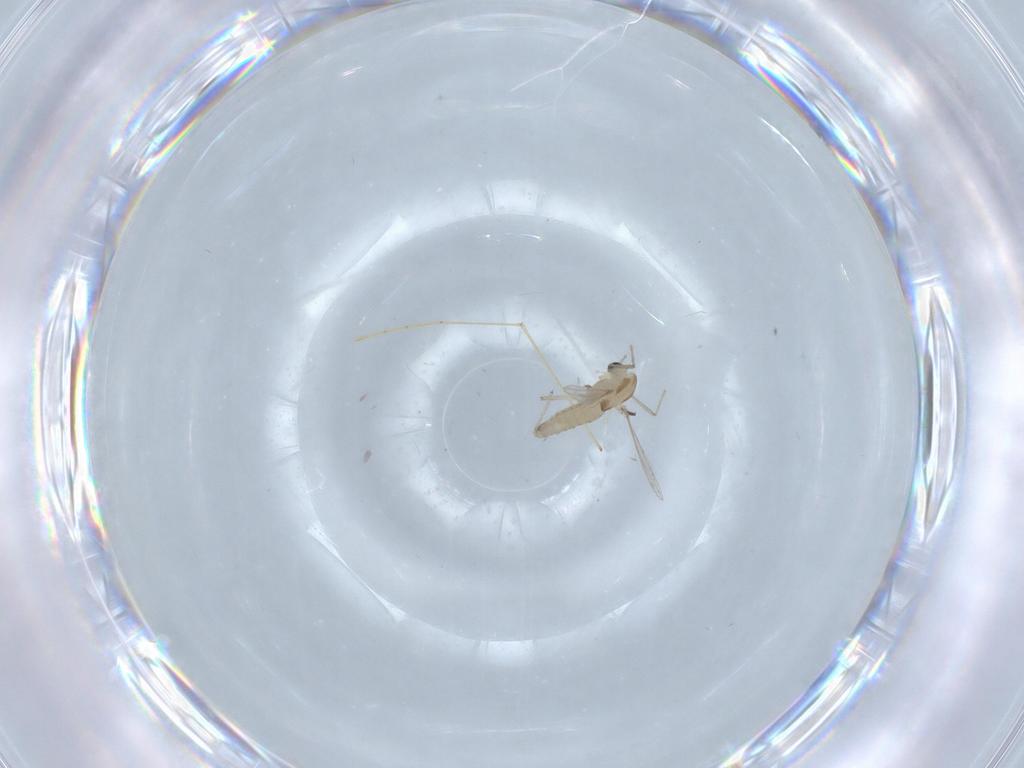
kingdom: Animalia
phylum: Arthropoda
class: Insecta
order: Diptera
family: Chironomidae
